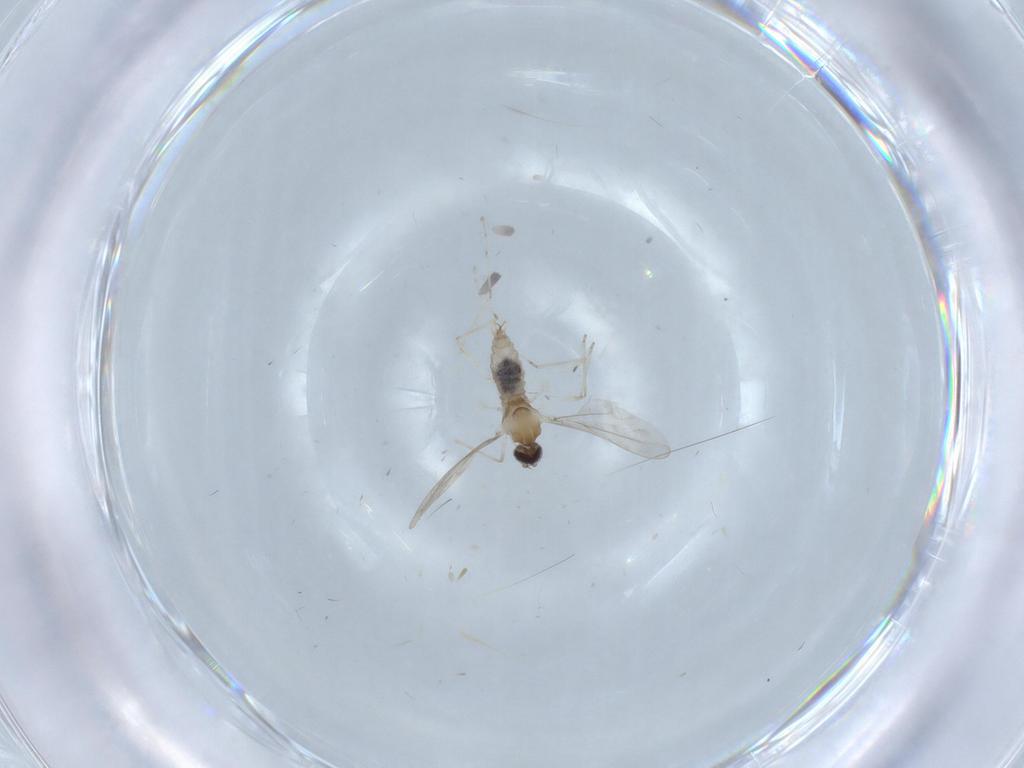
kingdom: Animalia
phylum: Arthropoda
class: Insecta
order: Diptera
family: Cecidomyiidae
